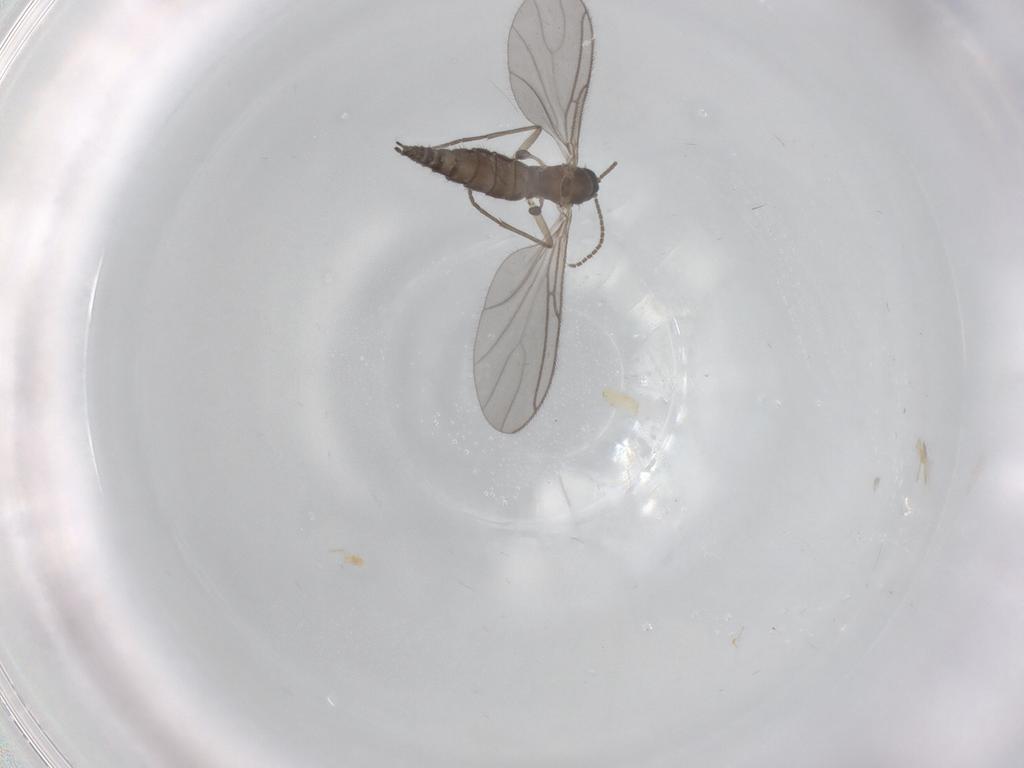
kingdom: Animalia
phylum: Arthropoda
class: Insecta
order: Diptera
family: Sciaridae
